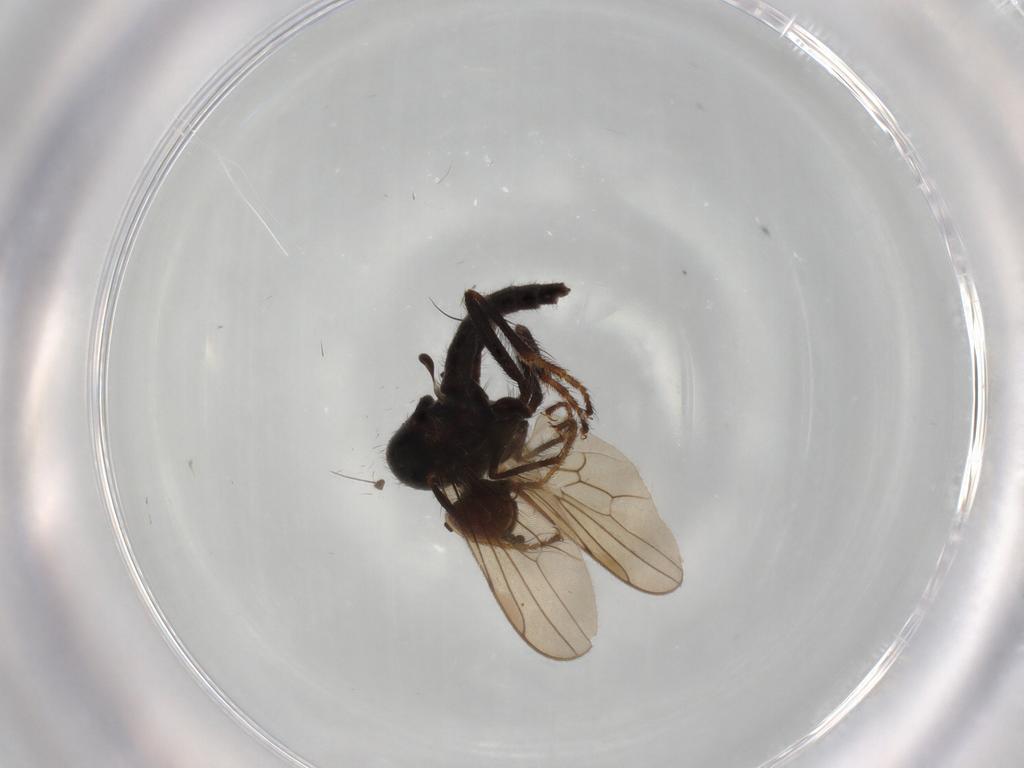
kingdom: Animalia
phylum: Arthropoda
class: Insecta
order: Diptera
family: Hybotidae
